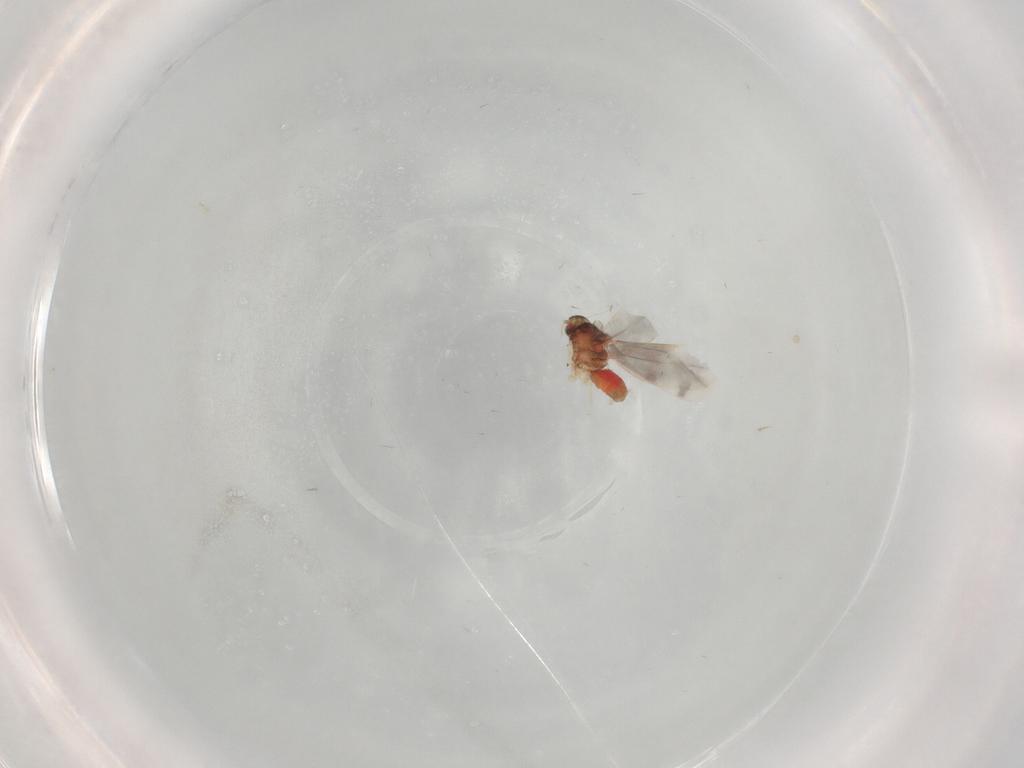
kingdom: Animalia
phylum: Arthropoda
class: Insecta
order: Hemiptera
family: Aleyrodidae
